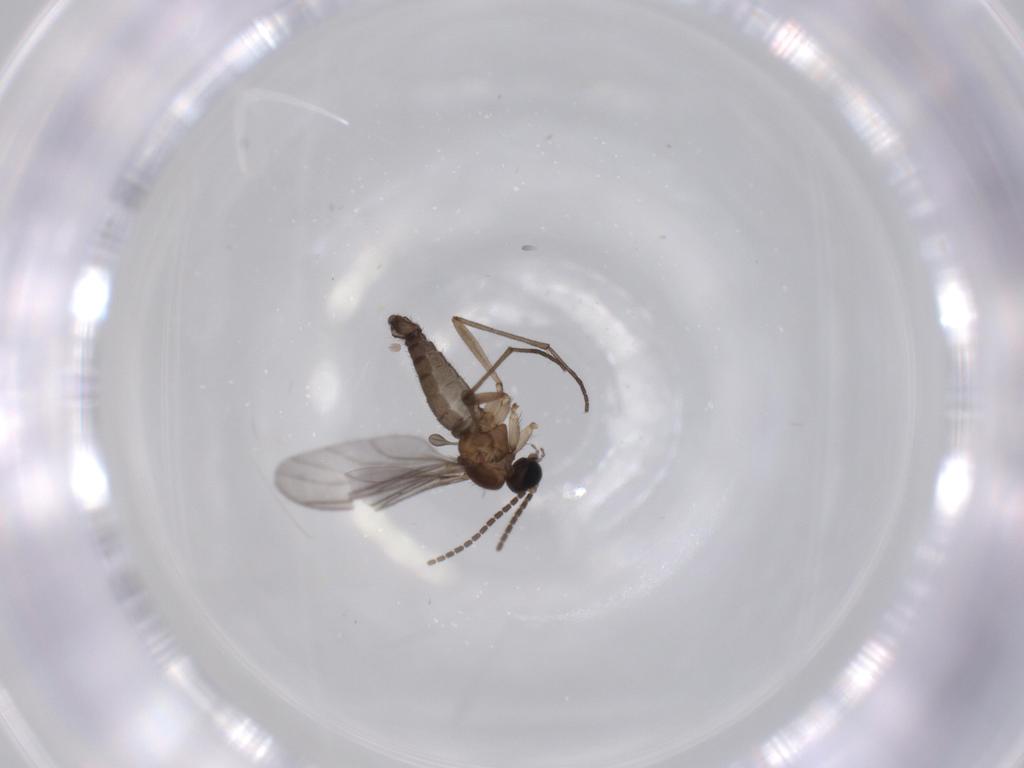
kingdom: Animalia
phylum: Arthropoda
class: Insecta
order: Diptera
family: Sciaridae
